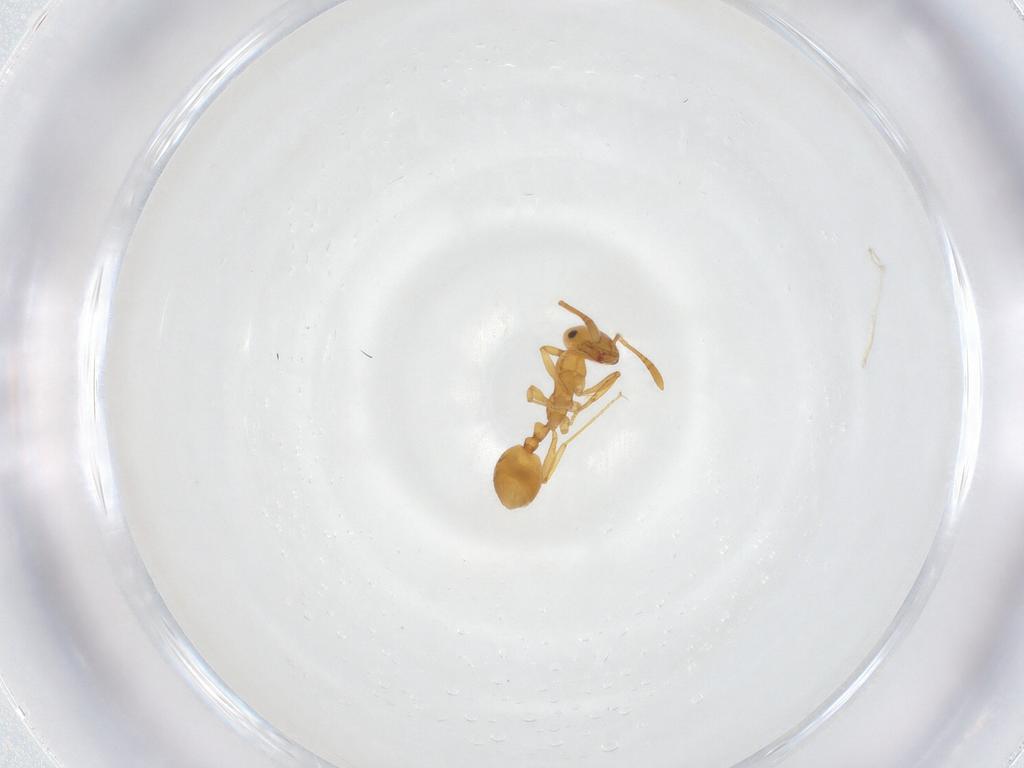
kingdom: Animalia
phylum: Arthropoda
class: Insecta
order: Hymenoptera
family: Formicidae
